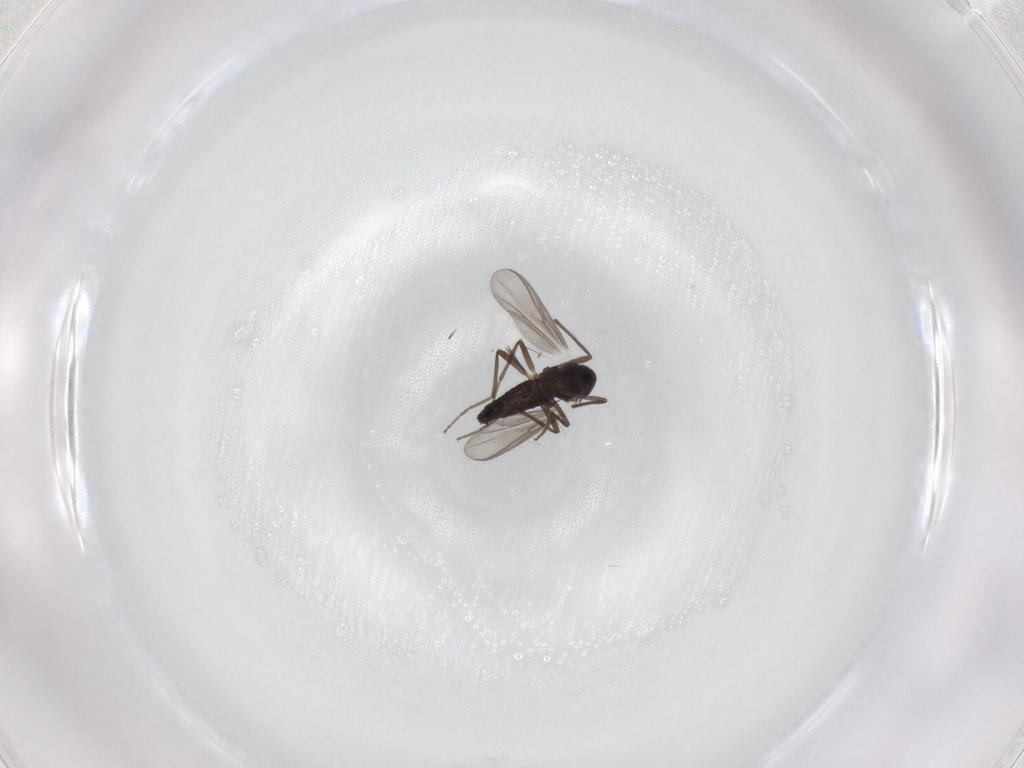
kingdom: Animalia
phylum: Arthropoda
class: Insecta
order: Diptera
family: Chironomidae
